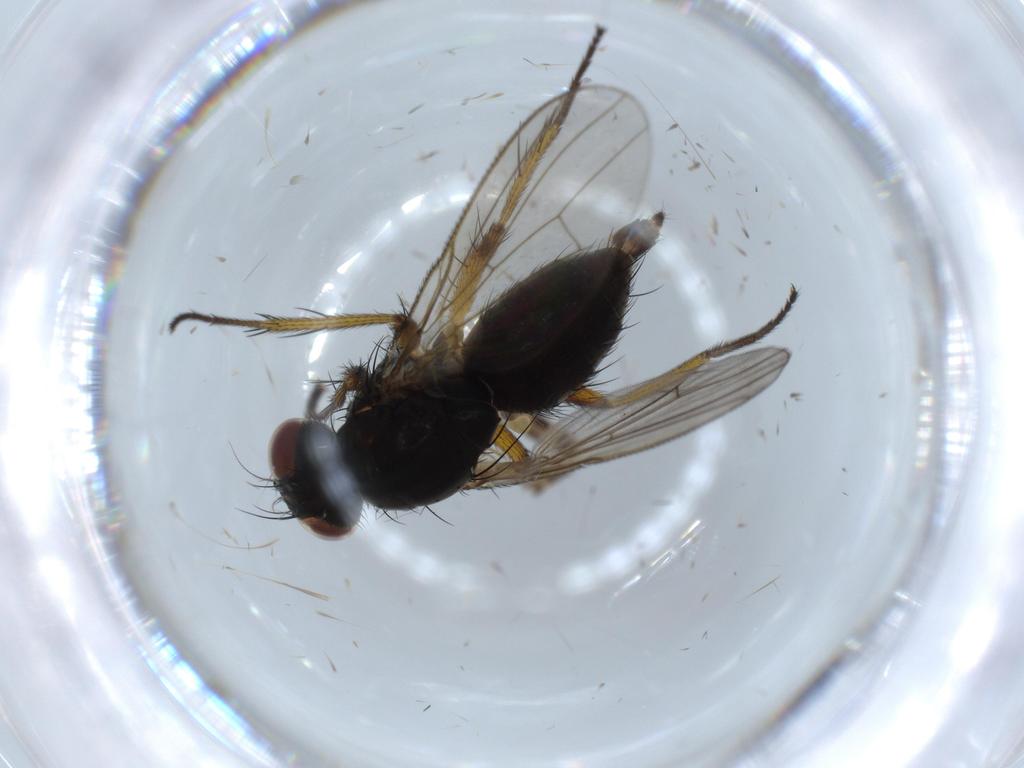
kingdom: Animalia
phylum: Arthropoda
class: Insecta
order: Diptera
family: Muscidae
